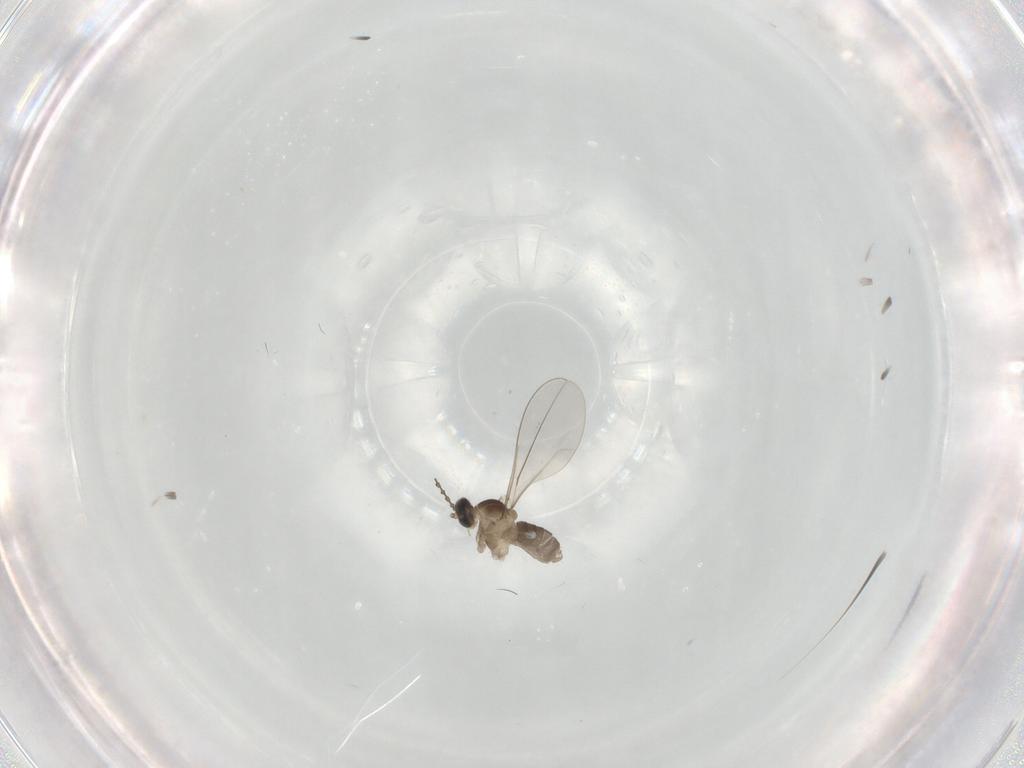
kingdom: Animalia
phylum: Arthropoda
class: Insecta
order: Diptera
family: Cecidomyiidae
